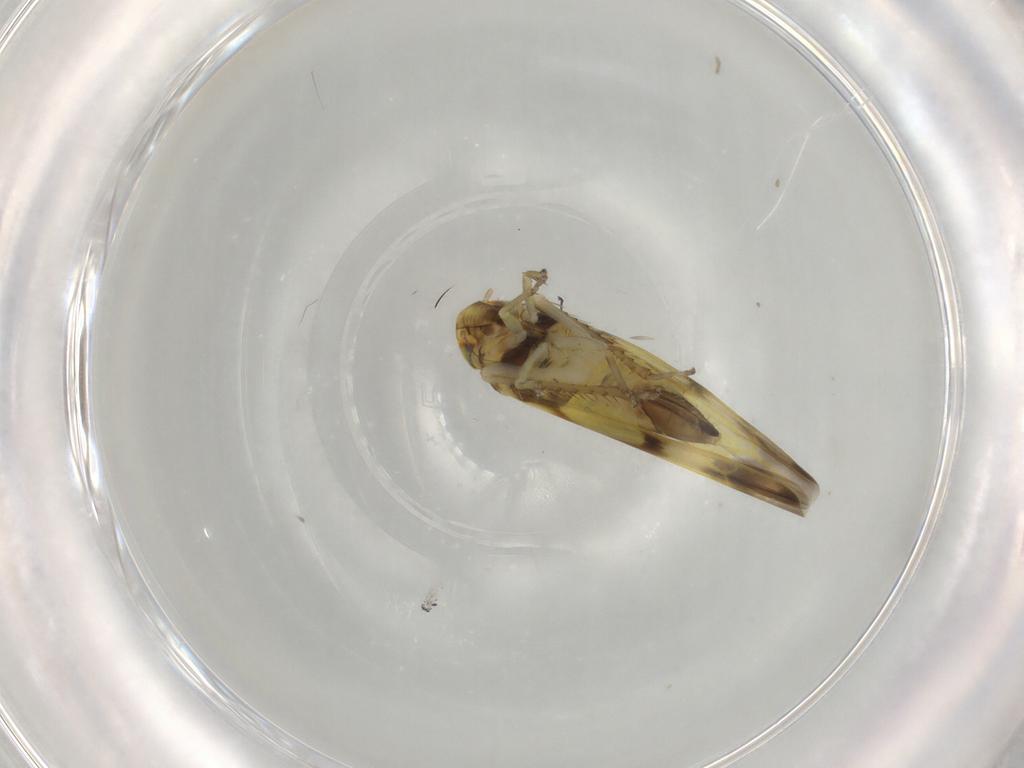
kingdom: Animalia
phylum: Arthropoda
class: Insecta
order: Hemiptera
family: Cicadellidae
